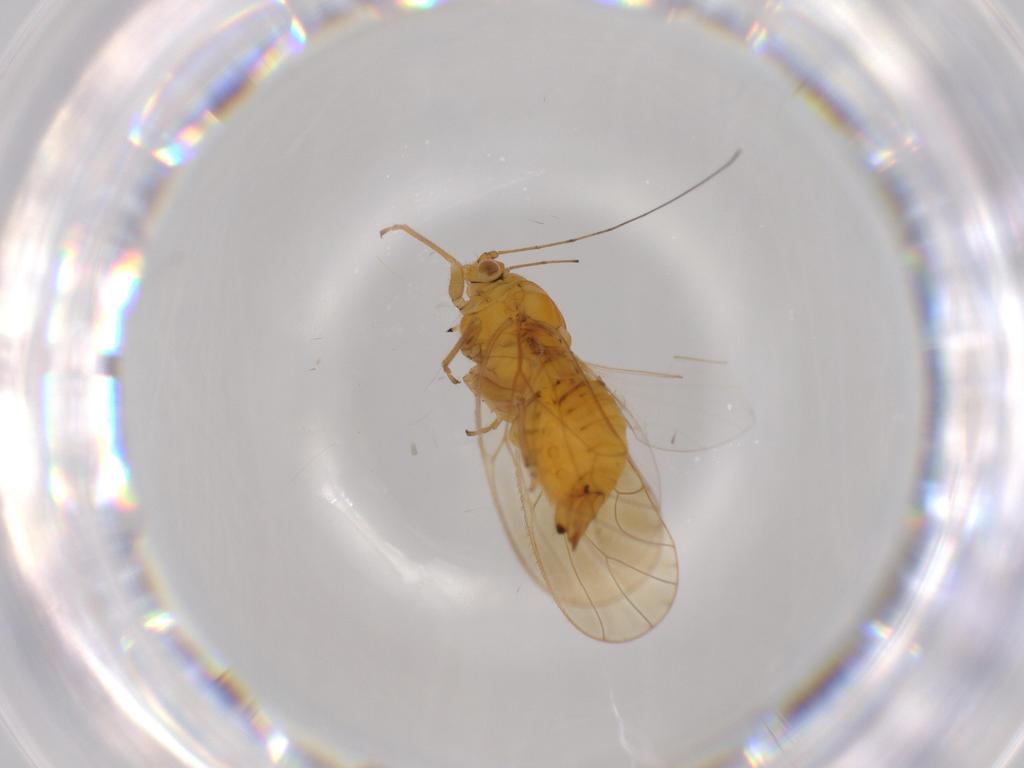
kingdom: Animalia
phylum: Arthropoda
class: Insecta
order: Hemiptera
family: Psyllidae
